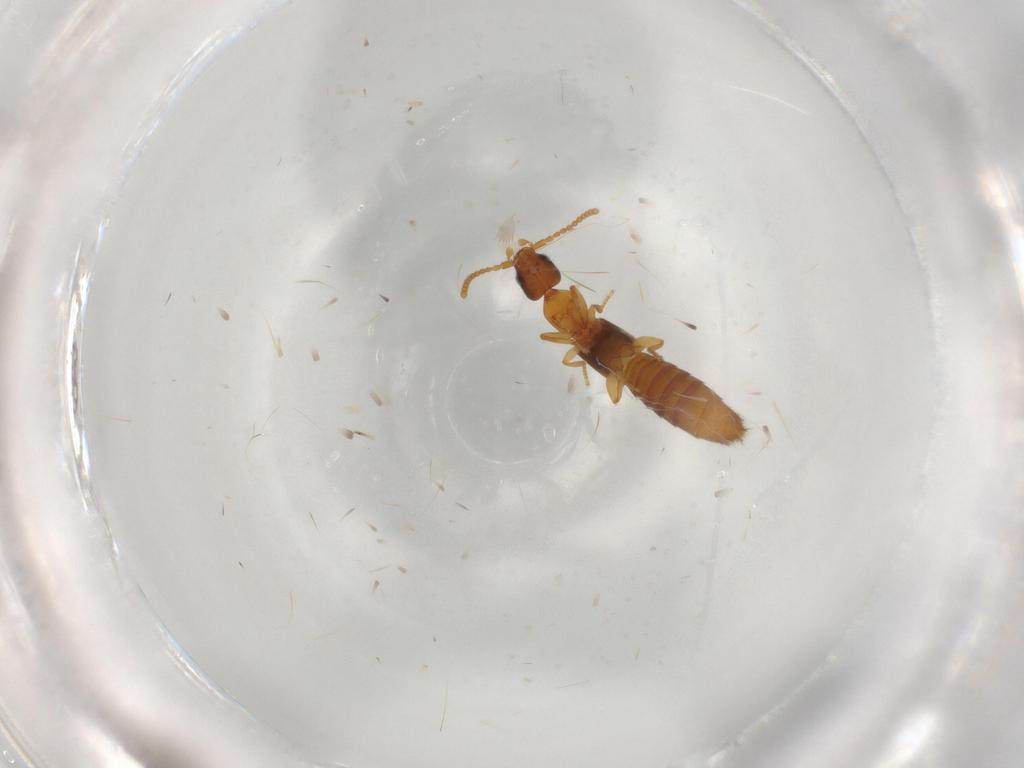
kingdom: Animalia
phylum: Arthropoda
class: Insecta
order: Coleoptera
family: Staphylinidae
